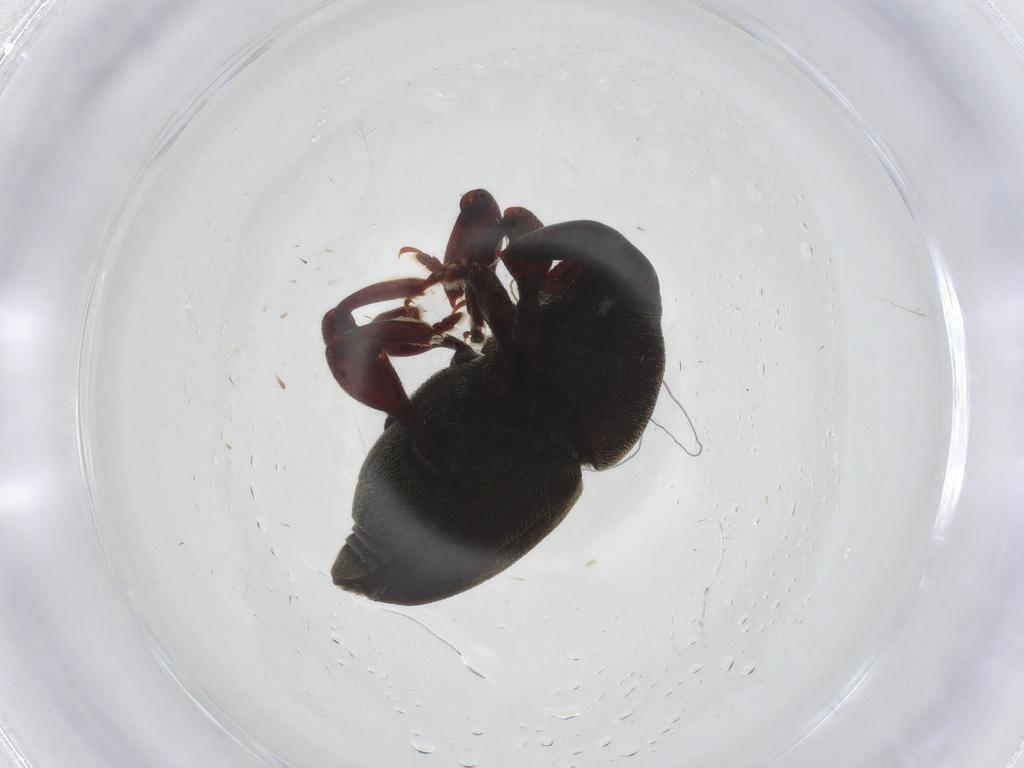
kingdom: Animalia
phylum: Arthropoda
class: Insecta
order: Coleoptera
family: Curculionidae
